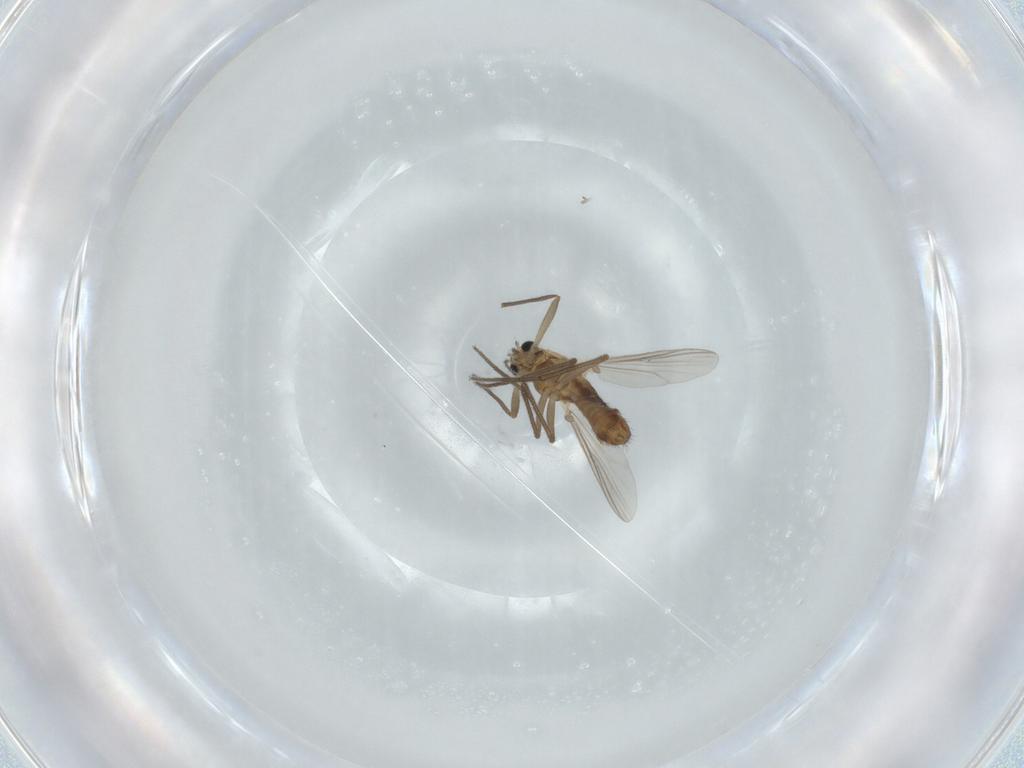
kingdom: Animalia
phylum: Arthropoda
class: Insecta
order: Diptera
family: Chironomidae
